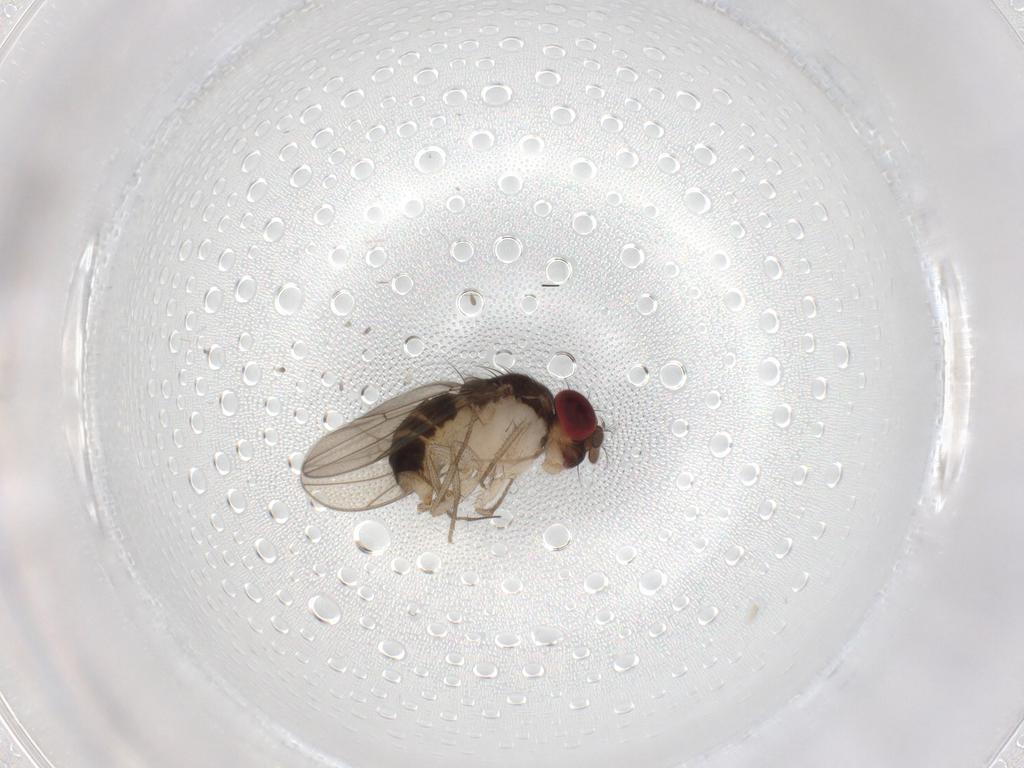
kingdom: Animalia
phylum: Arthropoda
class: Insecta
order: Diptera
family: Drosophilidae
